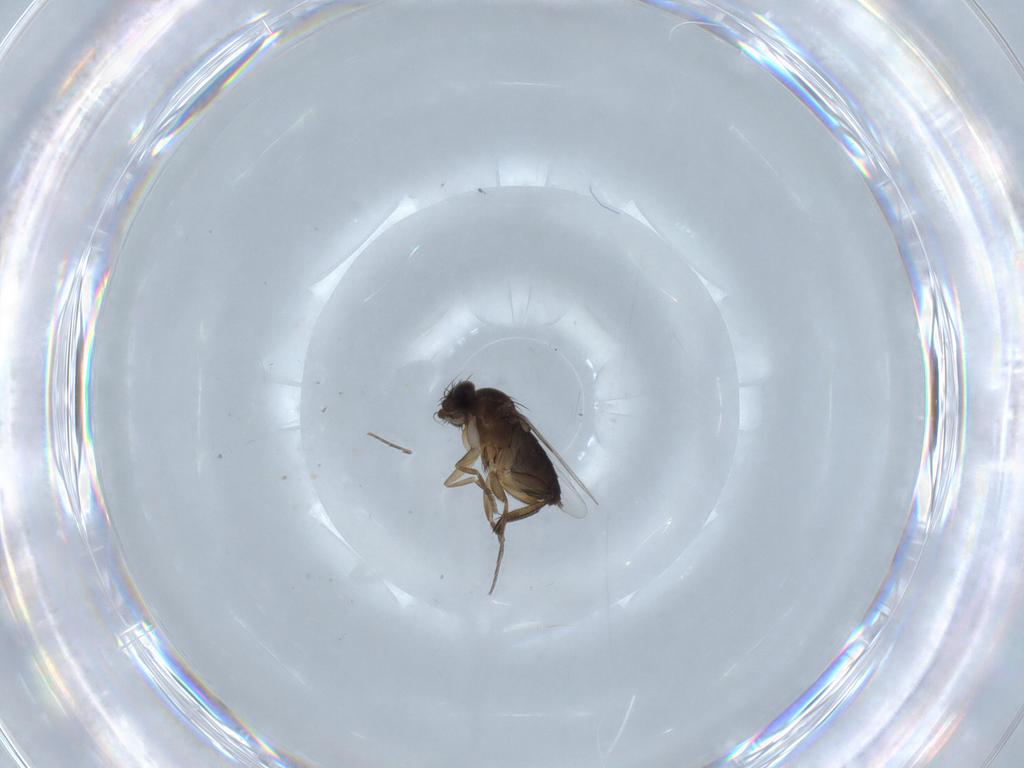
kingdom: Animalia
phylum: Arthropoda
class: Insecta
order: Diptera
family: Phoridae
